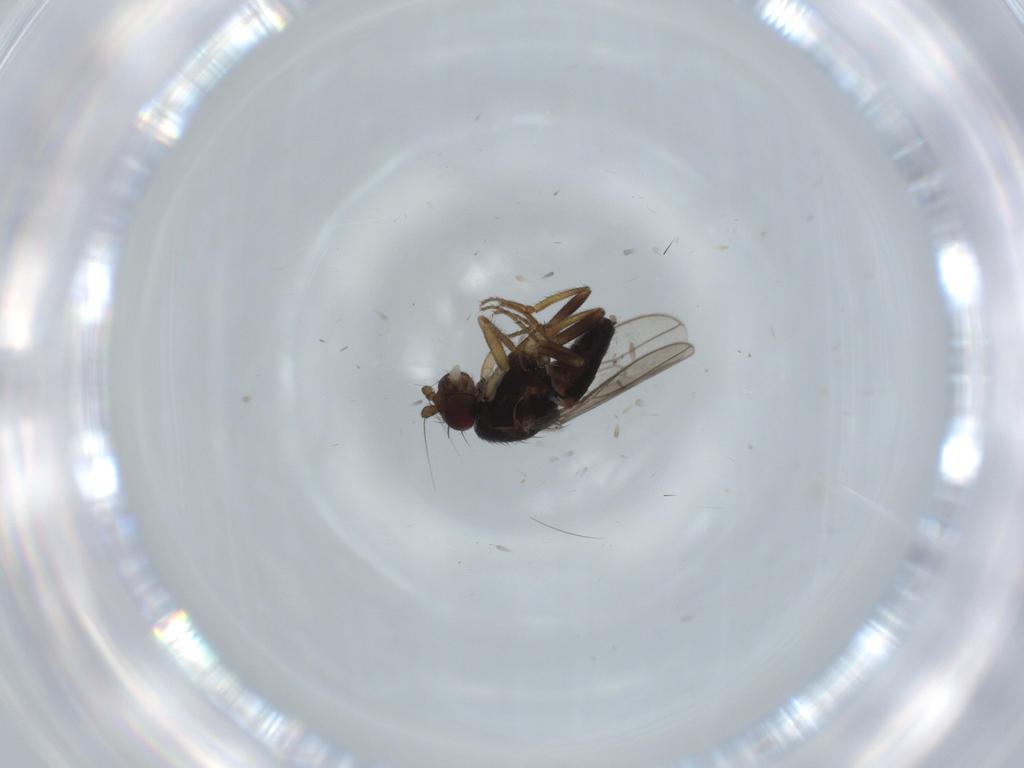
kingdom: Animalia
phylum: Arthropoda
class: Insecta
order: Diptera
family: Sphaeroceridae
